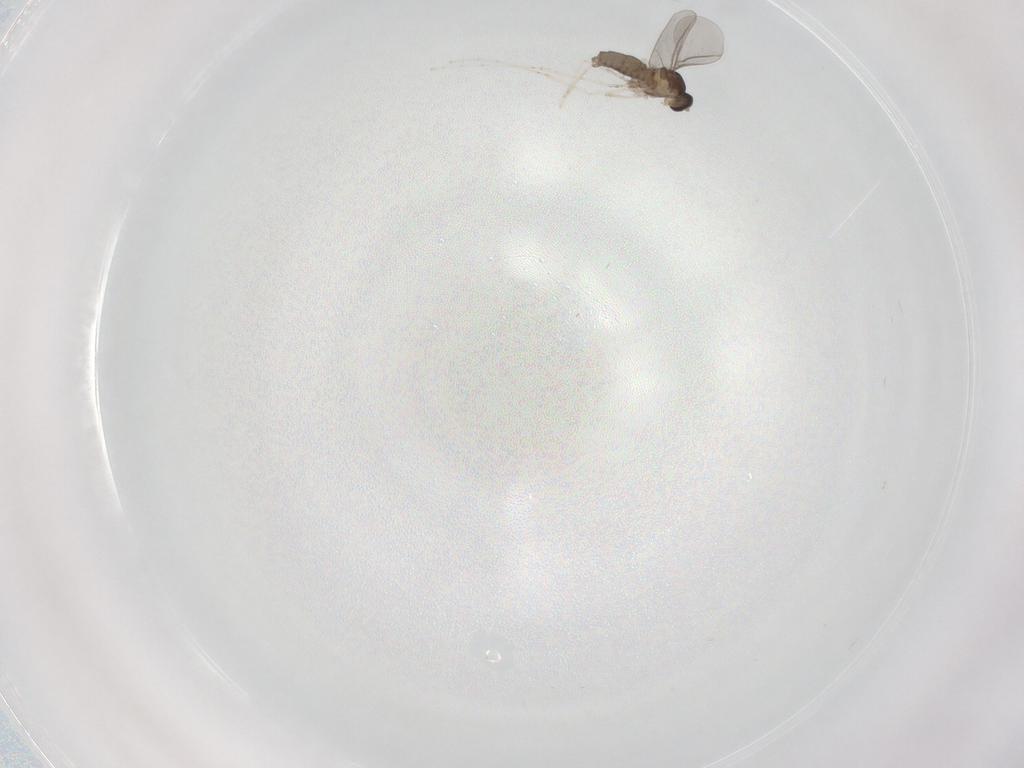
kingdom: Animalia
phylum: Arthropoda
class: Insecta
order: Diptera
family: Cecidomyiidae
